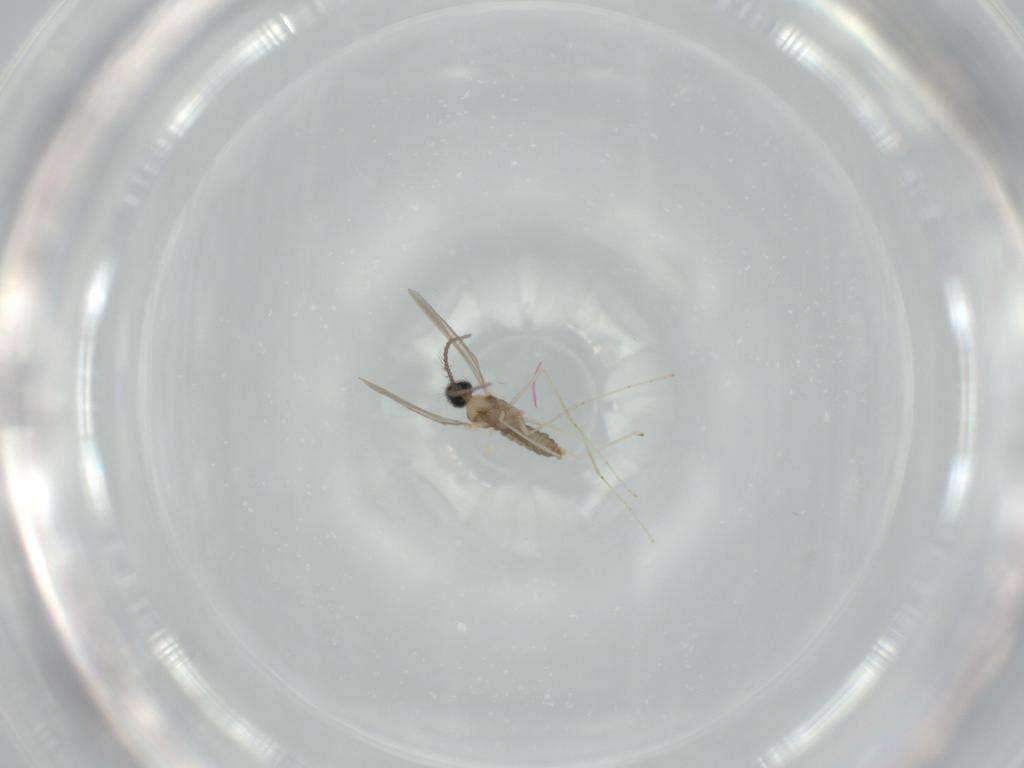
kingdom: Animalia
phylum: Arthropoda
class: Insecta
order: Diptera
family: Cecidomyiidae
